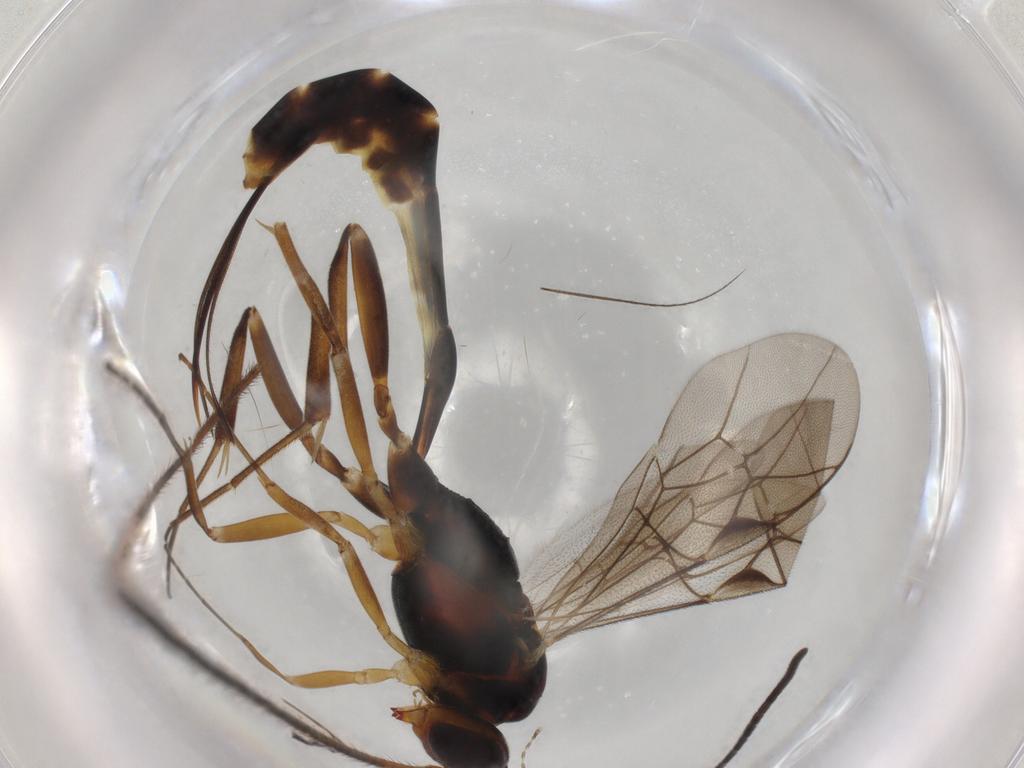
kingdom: Animalia
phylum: Arthropoda
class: Insecta
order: Hymenoptera
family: Ichneumonidae
